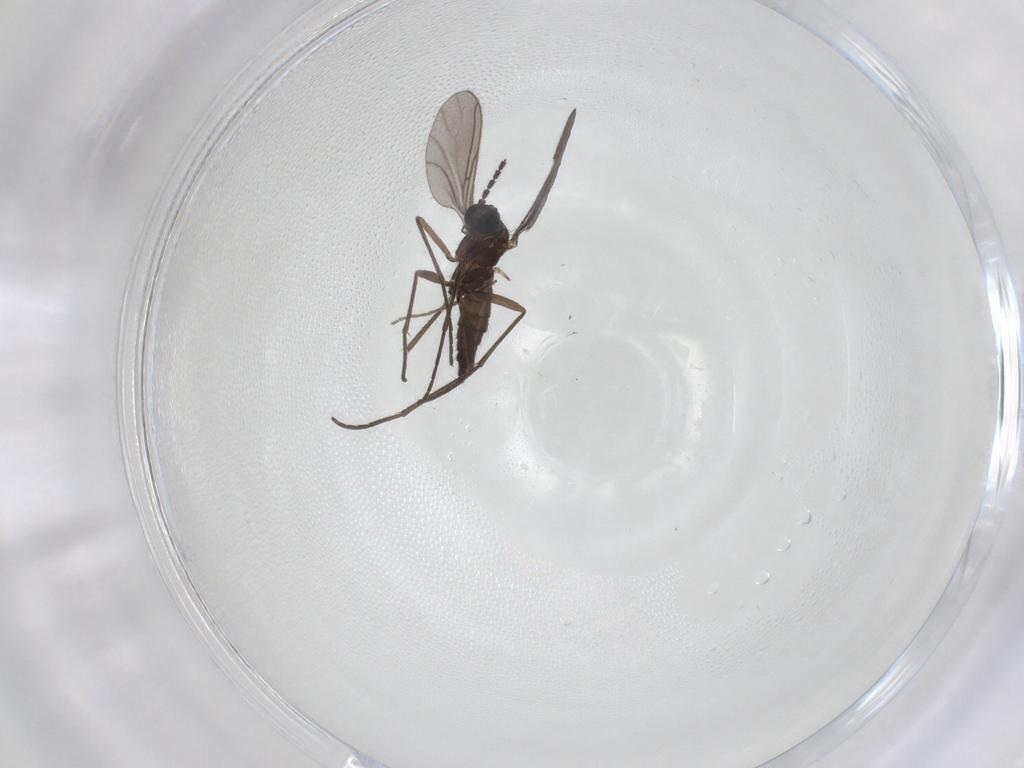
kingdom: Animalia
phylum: Arthropoda
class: Insecta
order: Diptera
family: Sciaridae
